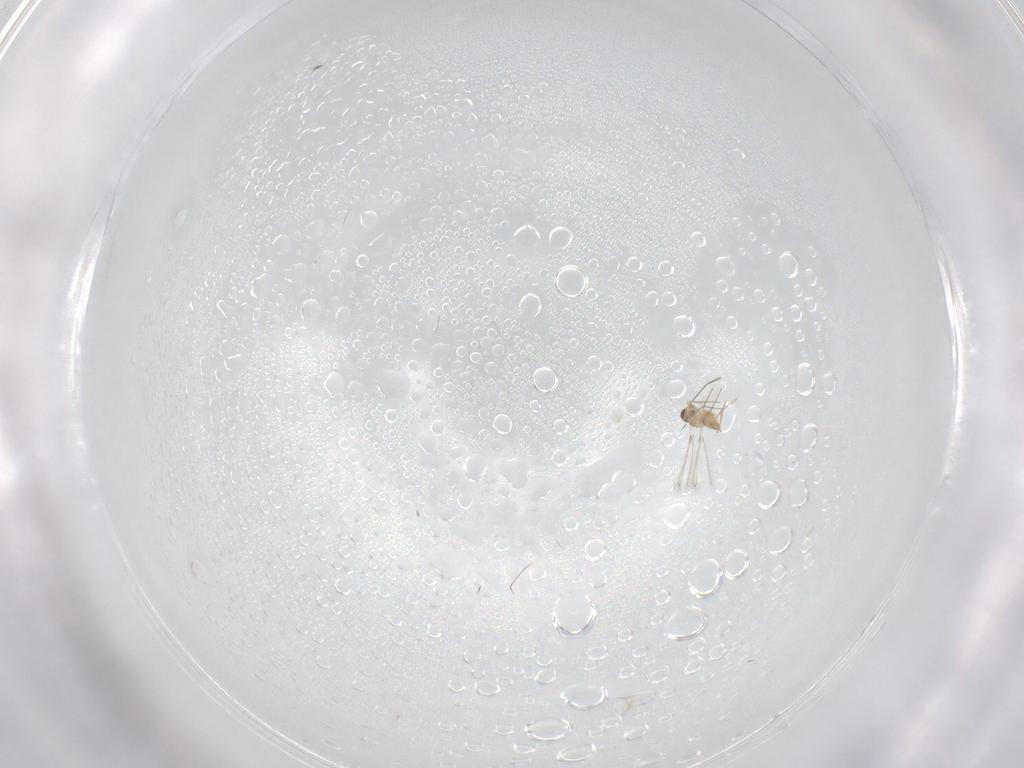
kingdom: Animalia
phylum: Arthropoda
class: Insecta
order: Hymenoptera
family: Mymaridae
